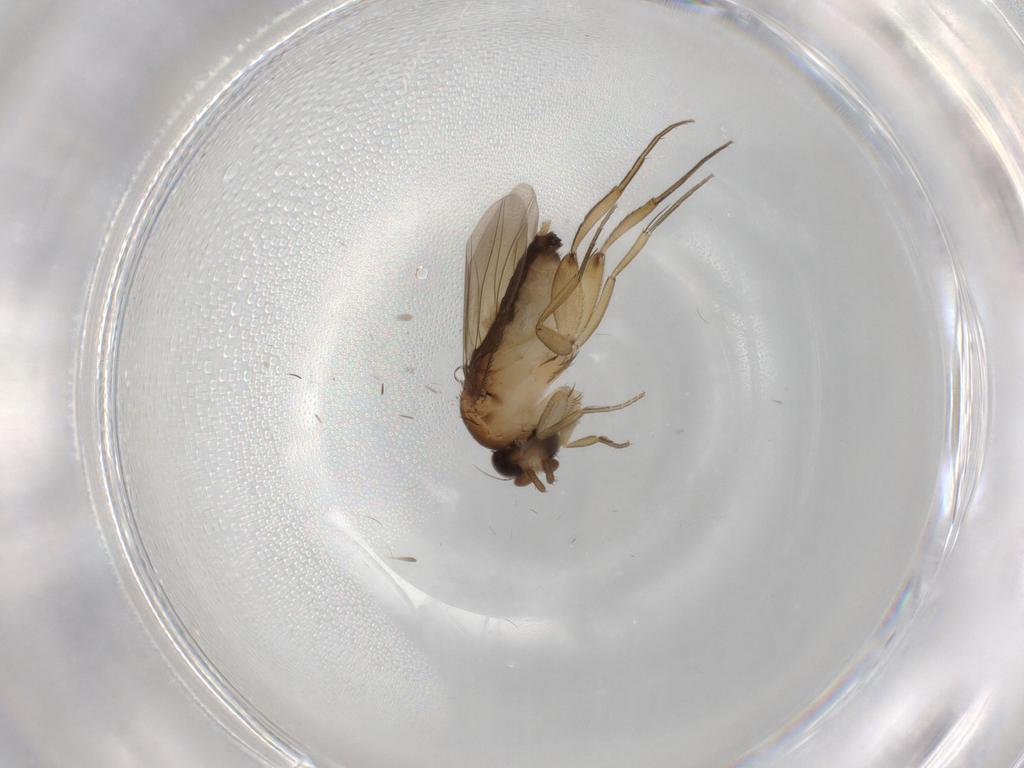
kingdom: Animalia
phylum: Arthropoda
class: Insecta
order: Diptera
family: Phoridae
